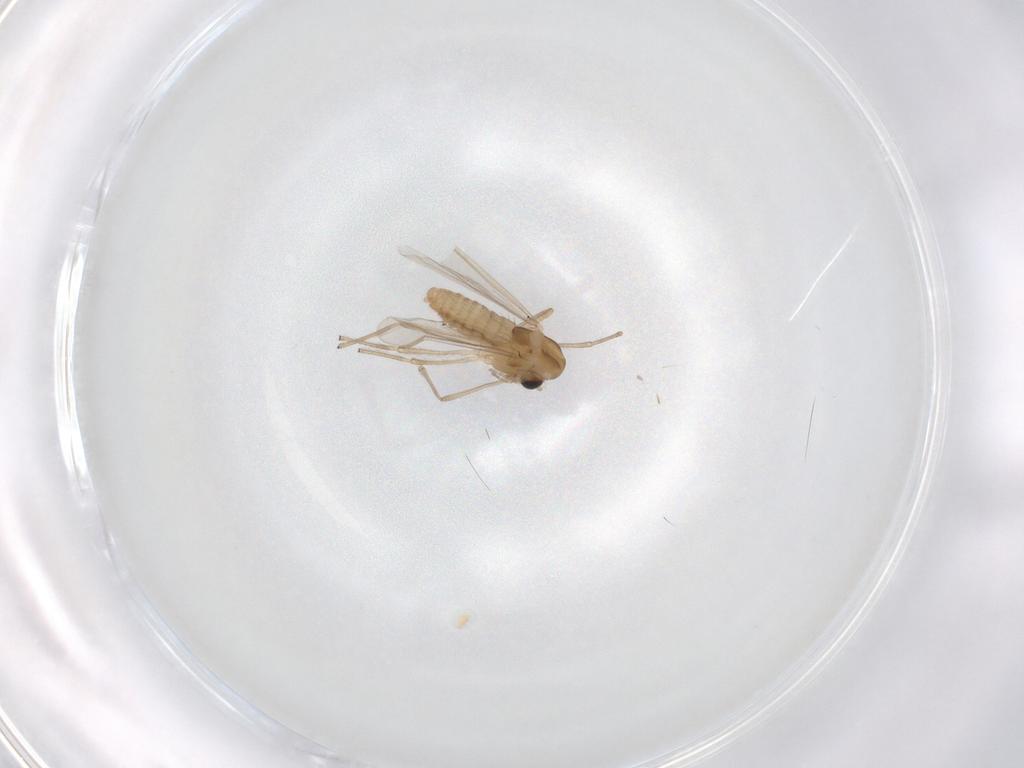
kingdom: Animalia
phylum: Arthropoda
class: Insecta
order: Diptera
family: Cecidomyiidae
